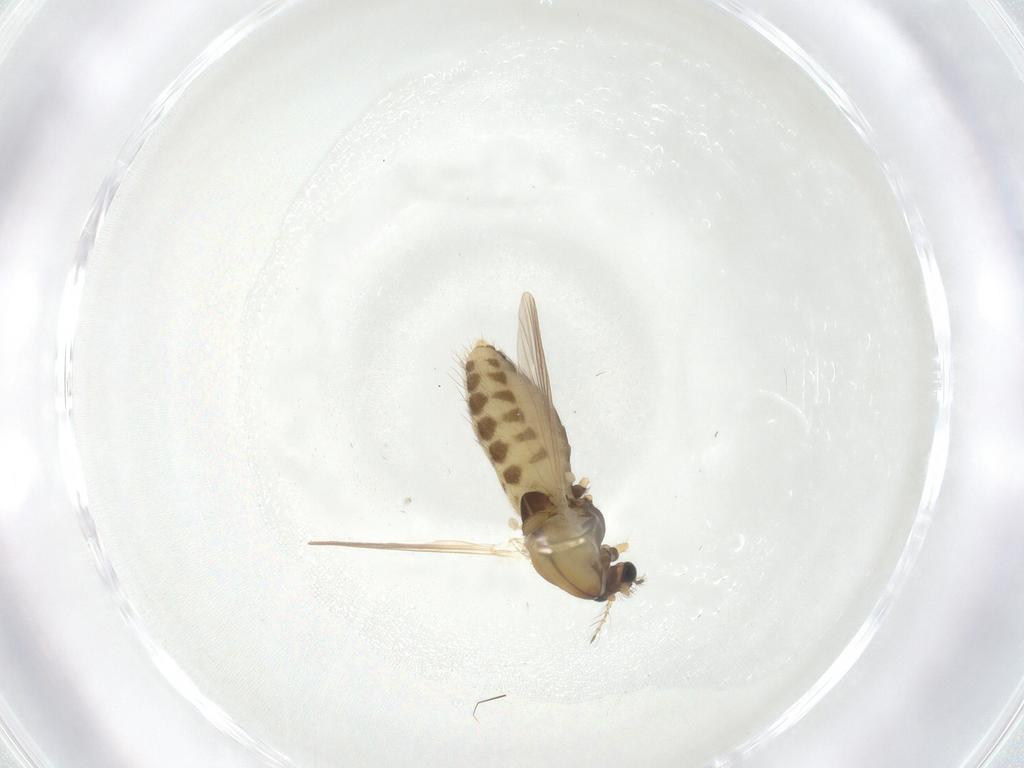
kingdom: Animalia
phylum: Arthropoda
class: Insecta
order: Diptera
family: Chironomidae
